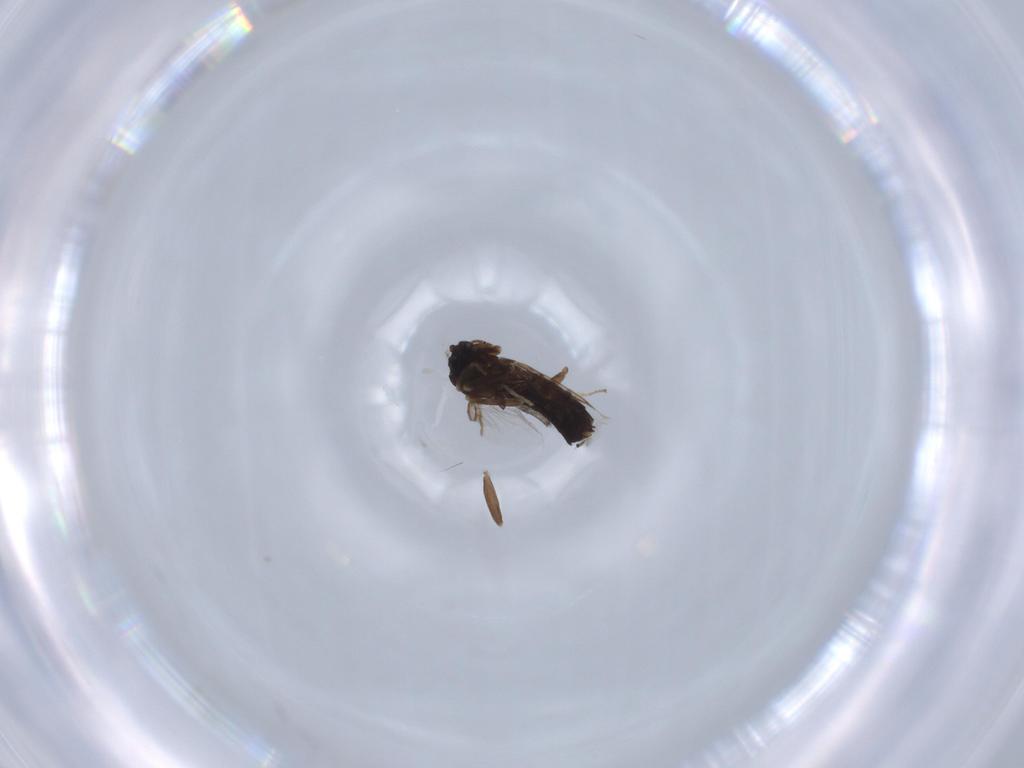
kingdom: Animalia
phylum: Arthropoda
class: Insecta
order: Diptera
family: Hybotidae
